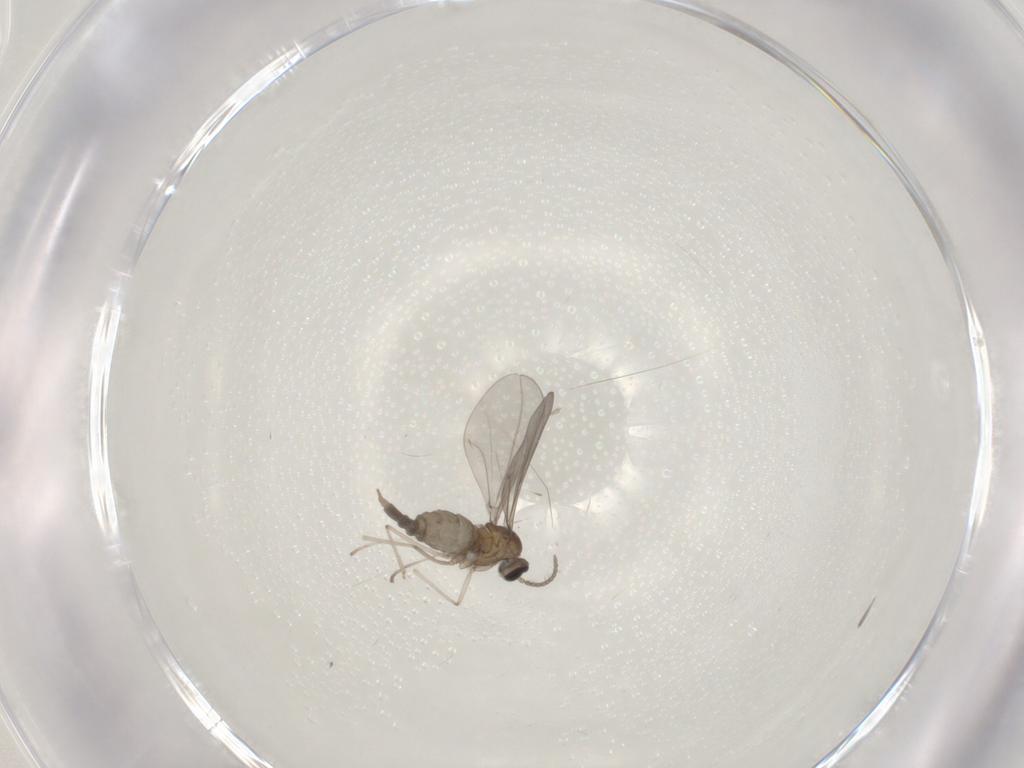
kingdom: Animalia
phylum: Arthropoda
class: Insecta
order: Diptera
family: Cecidomyiidae
